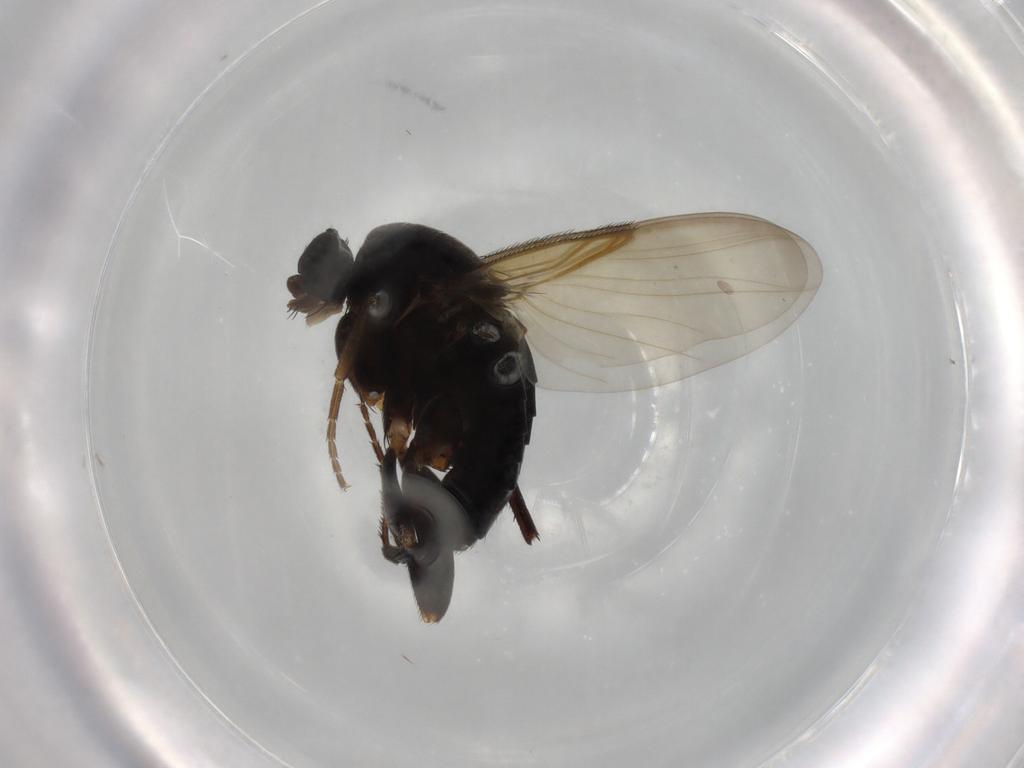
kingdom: Animalia
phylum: Arthropoda
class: Insecta
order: Diptera
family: Phoridae
